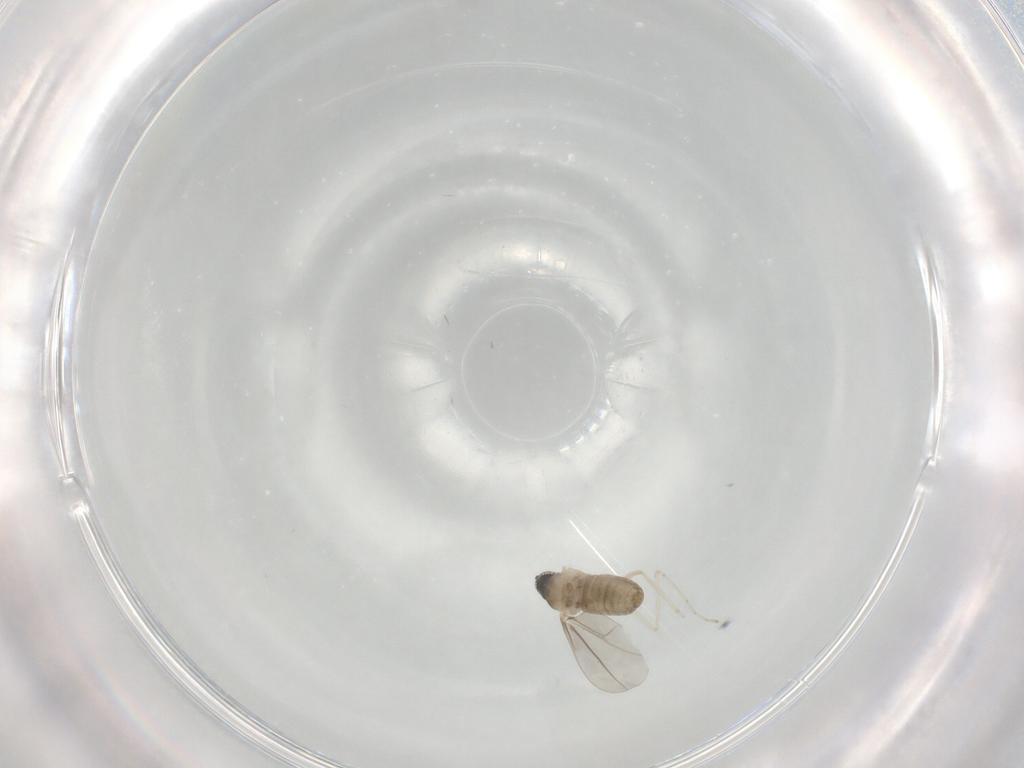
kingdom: Animalia
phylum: Arthropoda
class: Insecta
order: Diptera
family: Cecidomyiidae
